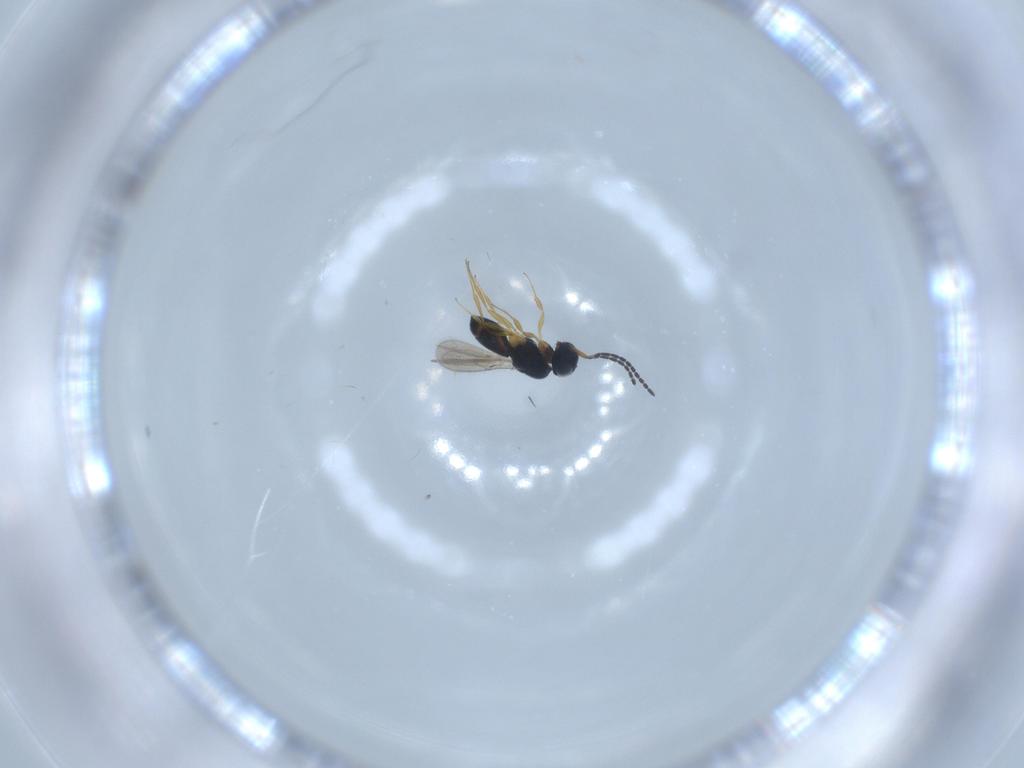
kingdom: Animalia
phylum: Arthropoda
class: Insecta
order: Hymenoptera
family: Scelionidae
